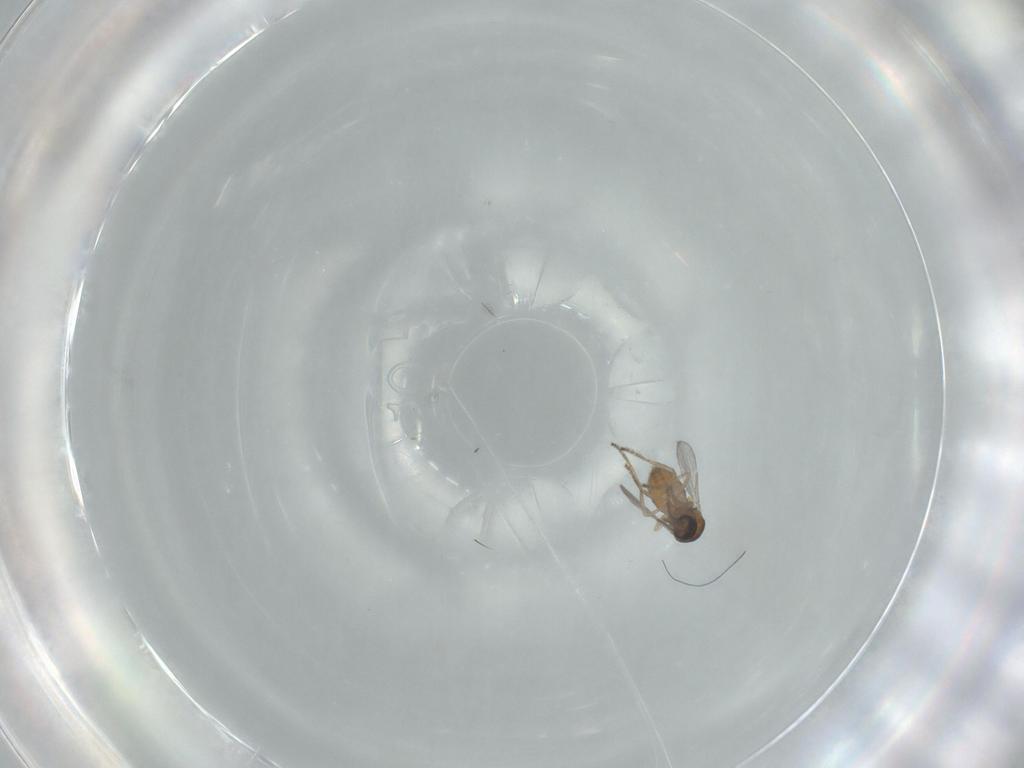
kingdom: Animalia
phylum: Arthropoda
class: Insecta
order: Diptera
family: Ceratopogonidae
